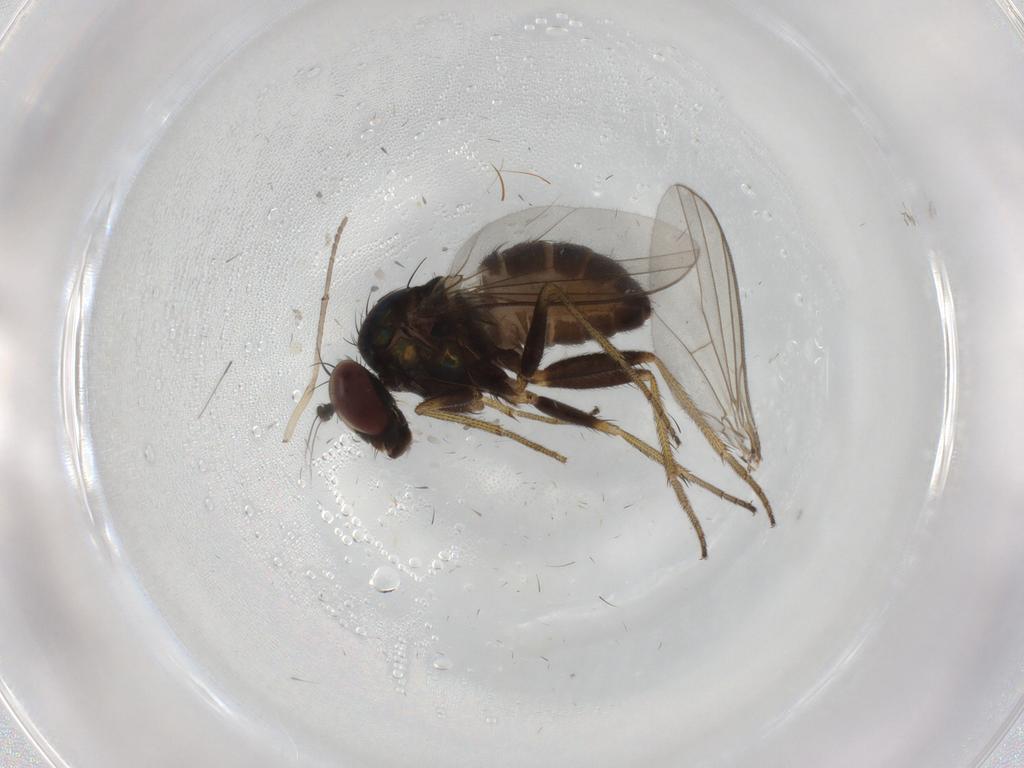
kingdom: Animalia
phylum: Arthropoda
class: Insecta
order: Diptera
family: Psychodidae
